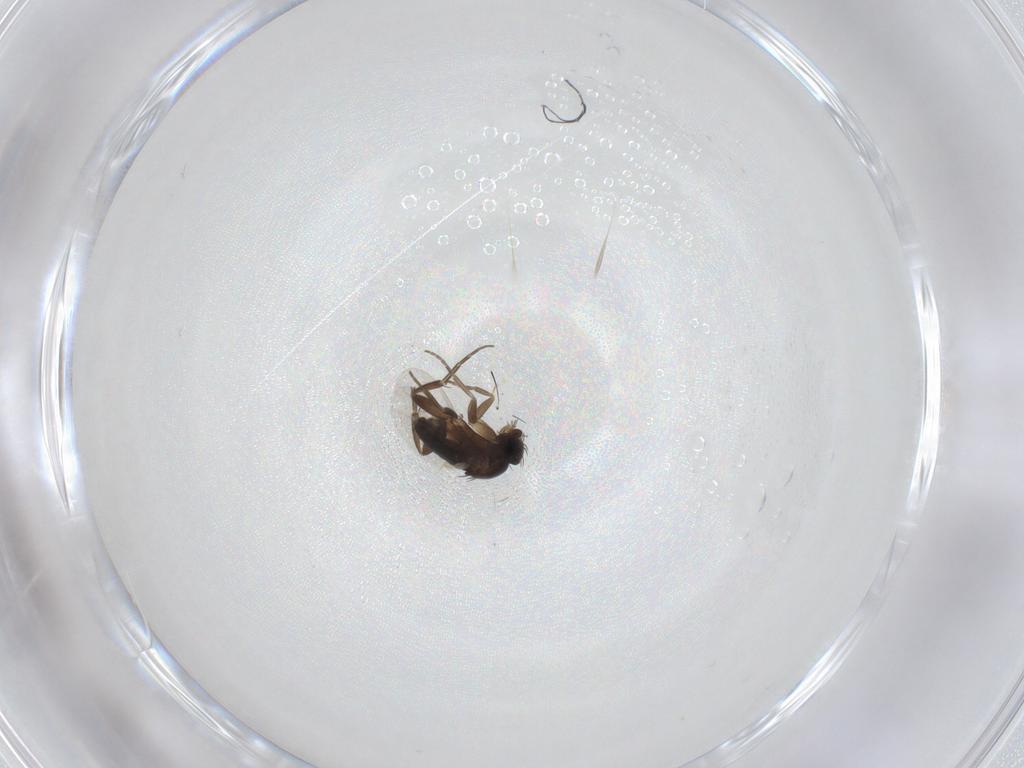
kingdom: Animalia
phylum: Arthropoda
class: Insecta
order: Diptera
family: Phoridae
